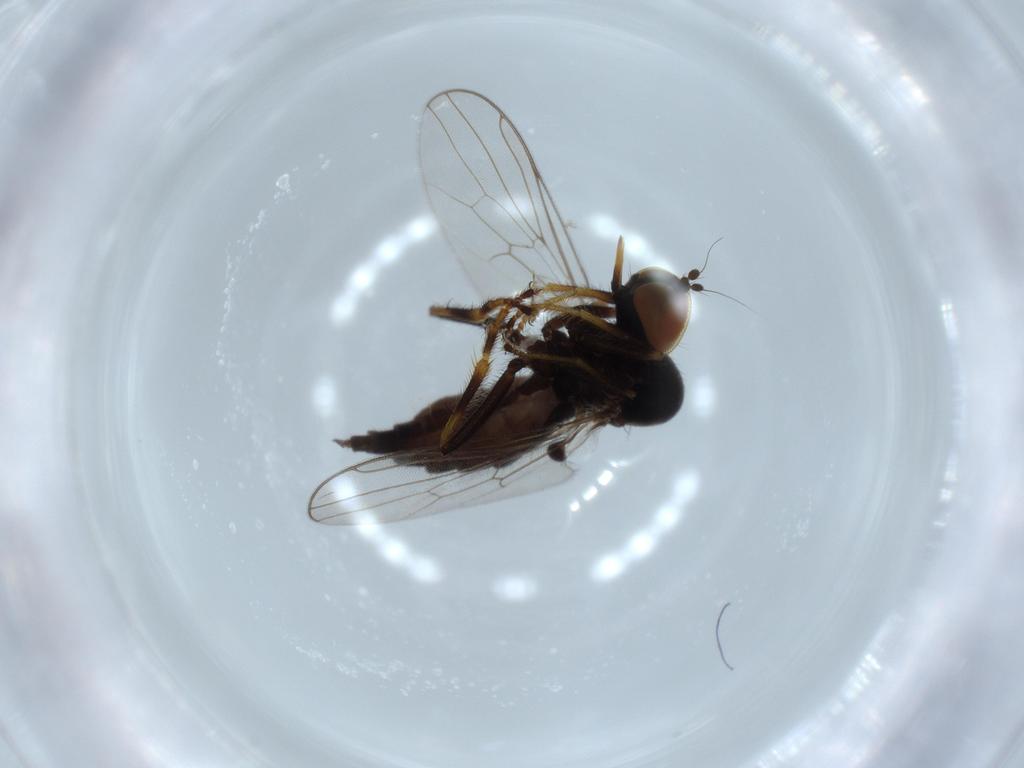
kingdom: Animalia
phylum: Arthropoda
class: Insecta
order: Diptera
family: Hybotidae
